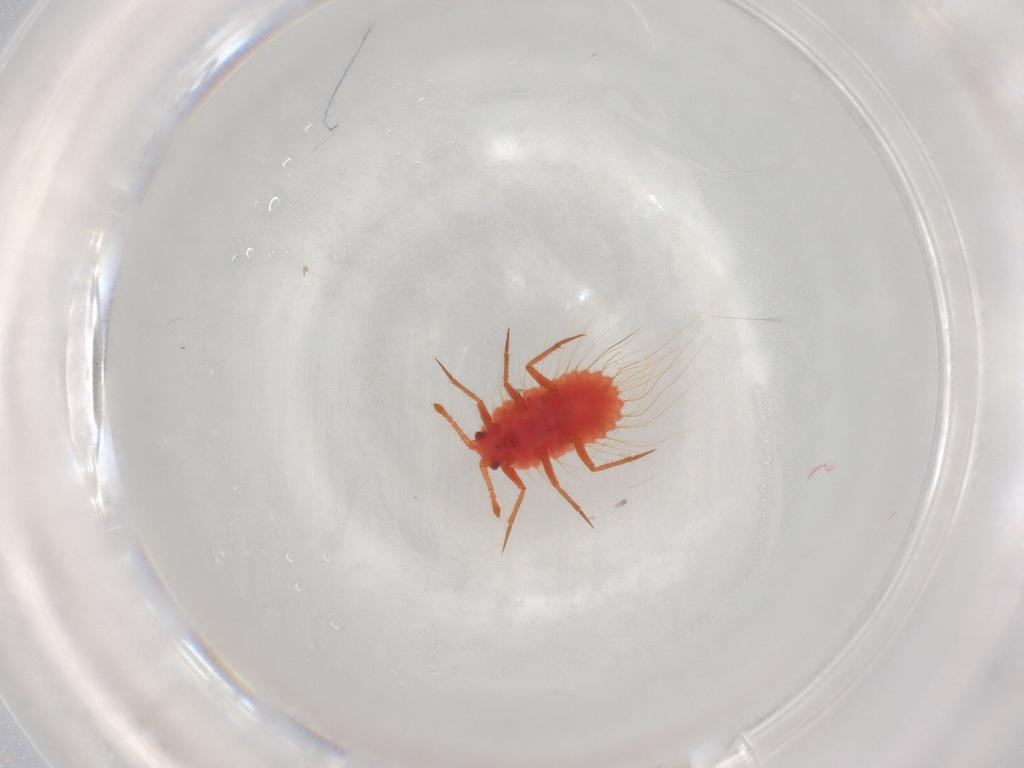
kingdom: Animalia
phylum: Arthropoda
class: Insecta
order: Hemiptera
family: Monophlebidae
